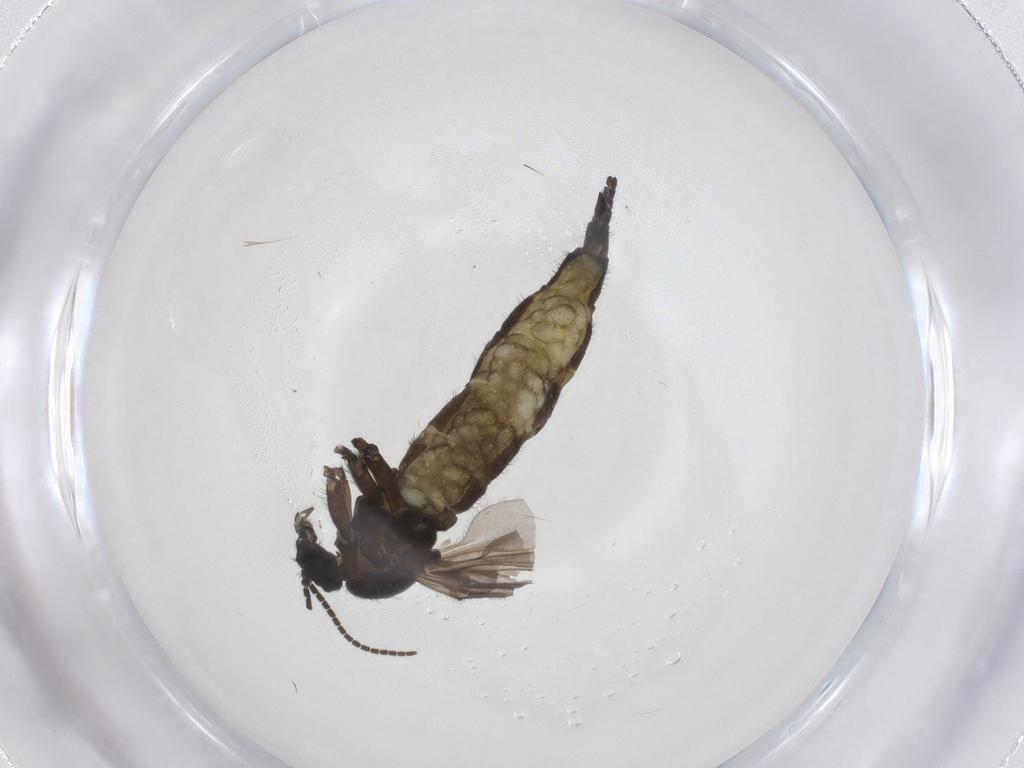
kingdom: Animalia
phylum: Arthropoda
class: Insecta
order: Diptera
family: Sciaridae
